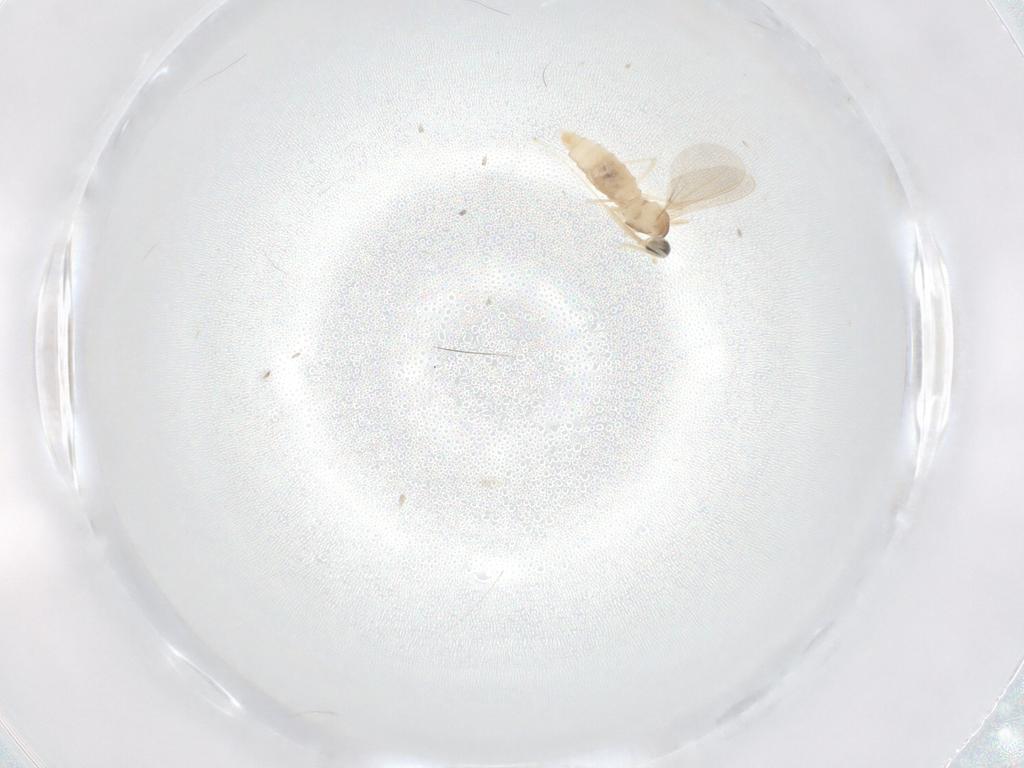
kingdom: Animalia
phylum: Arthropoda
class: Insecta
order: Diptera
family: Cecidomyiidae
